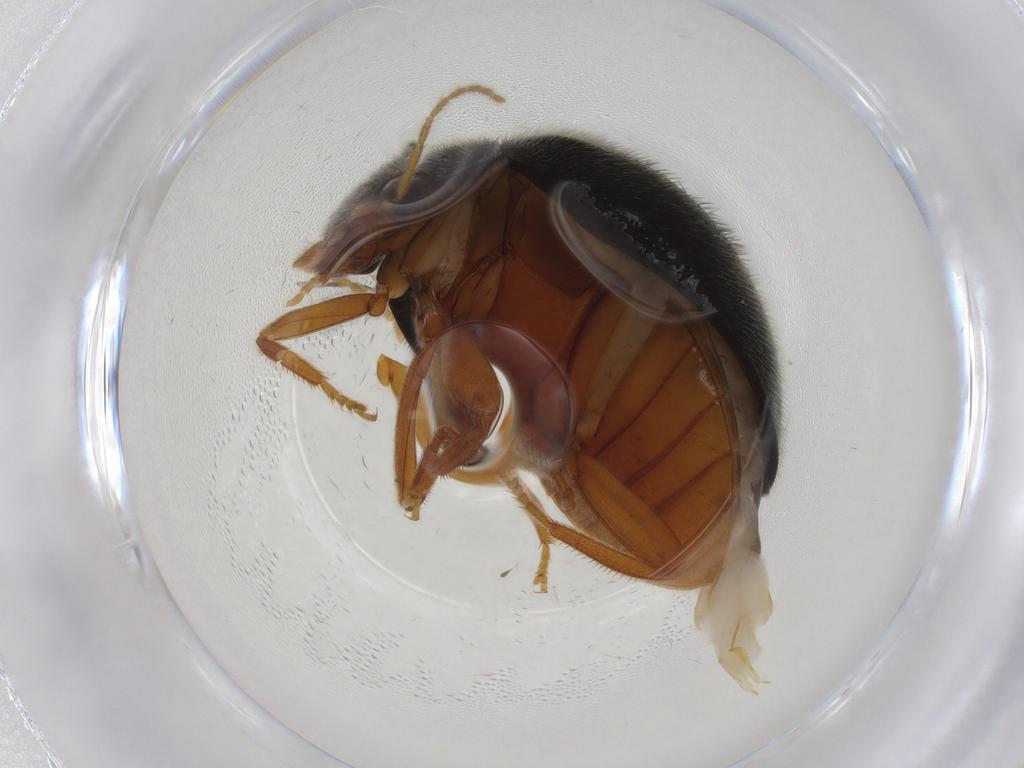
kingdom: Animalia
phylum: Arthropoda
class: Insecta
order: Coleoptera
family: Scirtidae
